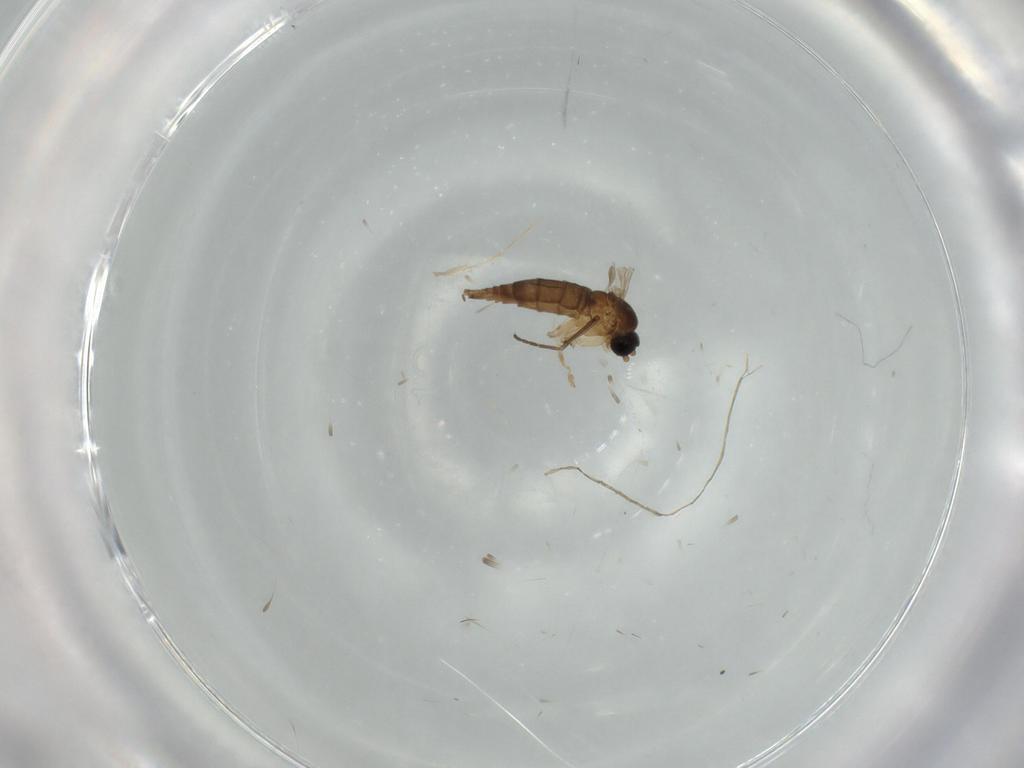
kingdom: Animalia
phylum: Arthropoda
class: Insecta
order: Diptera
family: Sciaridae
